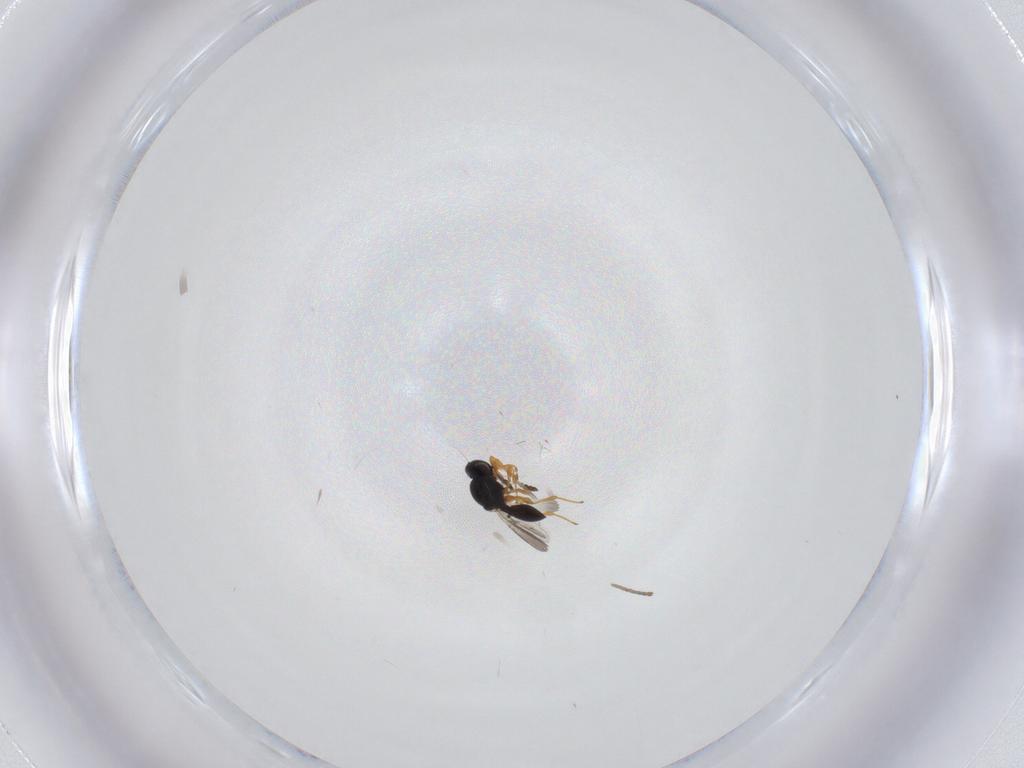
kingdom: Animalia
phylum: Arthropoda
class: Insecta
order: Hymenoptera
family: Platygastridae
